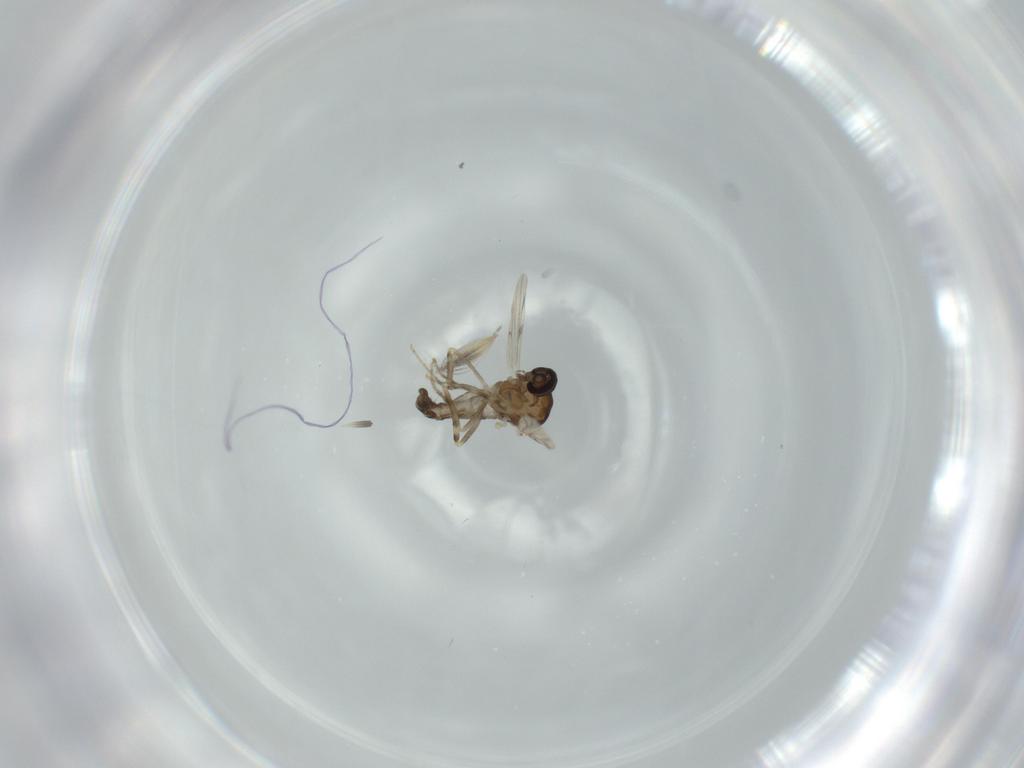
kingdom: Animalia
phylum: Arthropoda
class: Insecta
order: Diptera
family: Ceratopogonidae
